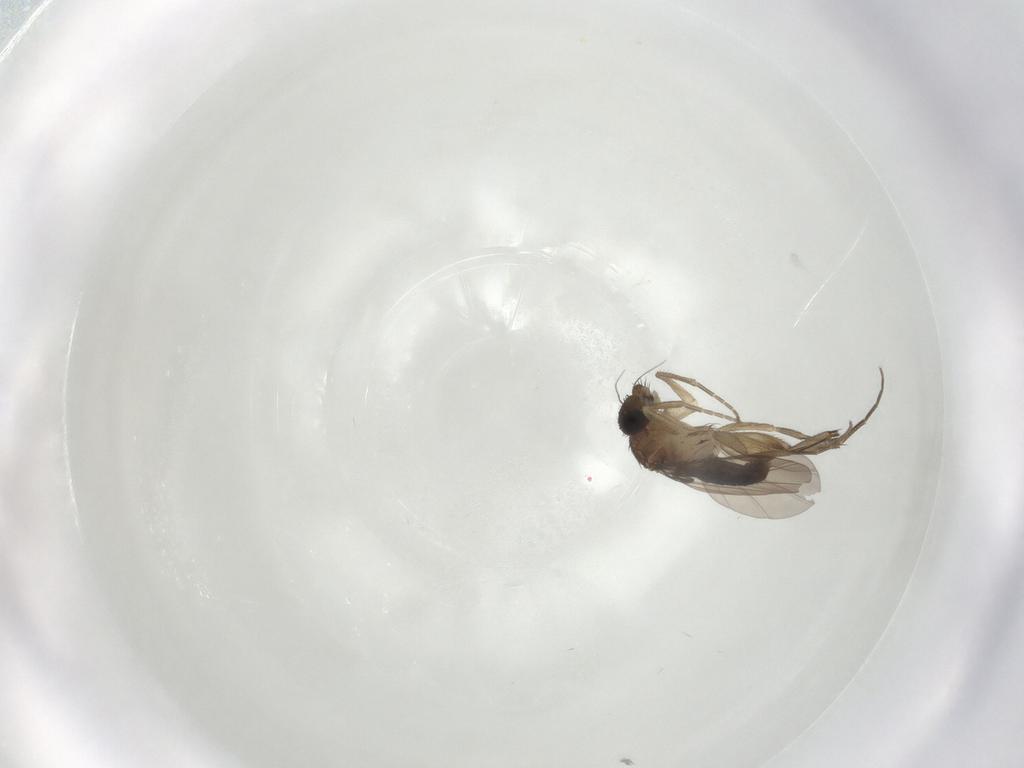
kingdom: Animalia
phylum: Arthropoda
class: Insecta
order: Diptera
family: Phoridae
